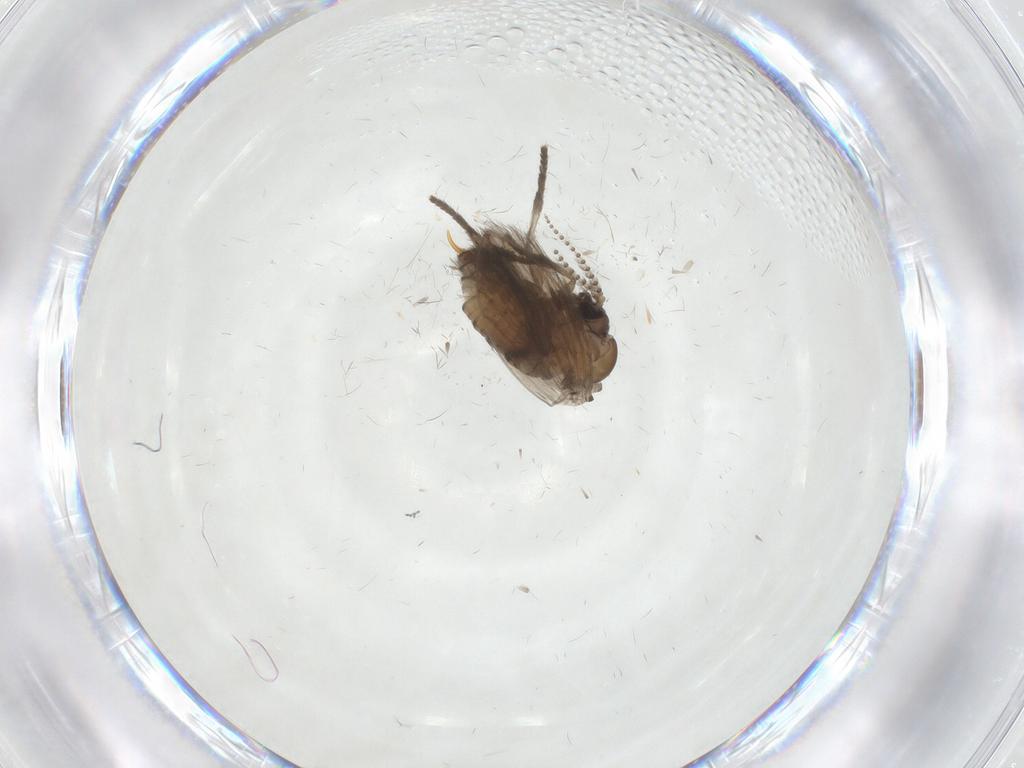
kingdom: Animalia
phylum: Arthropoda
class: Insecta
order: Diptera
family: Psychodidae
